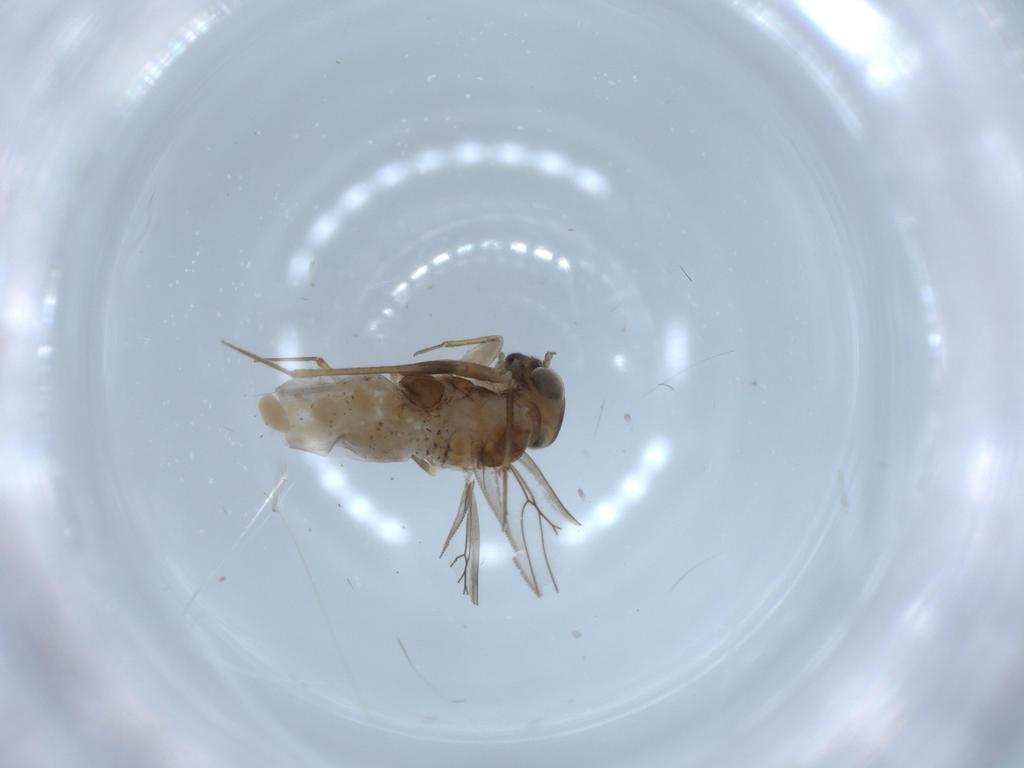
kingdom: Animalia
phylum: Arthropoda
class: Insecta
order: Psocodea
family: Lepidopsocidae
